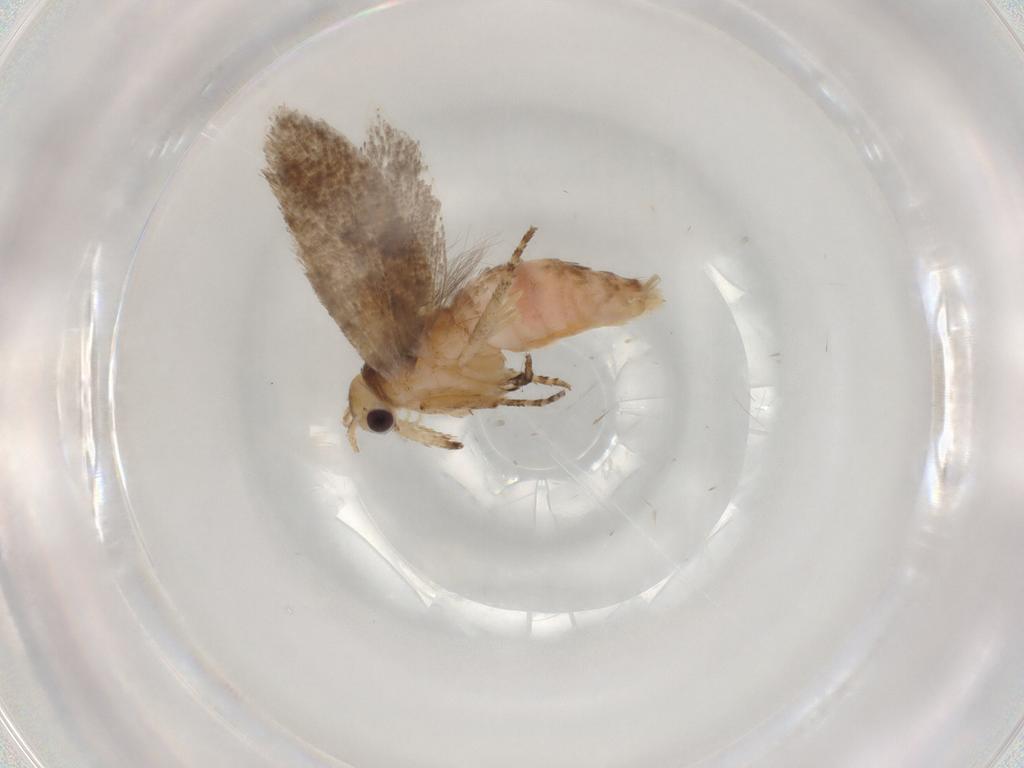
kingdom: Animalia
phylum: Arthropoda
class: Insecta
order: Lepidoptera
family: Plutellidae
